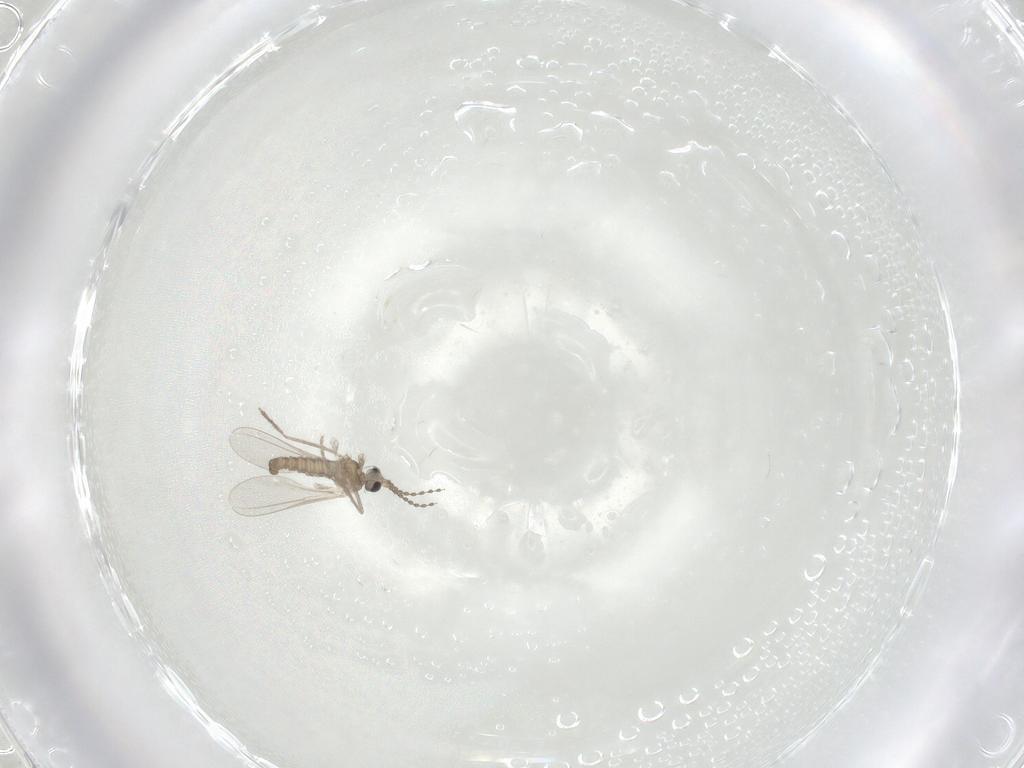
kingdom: Animalia
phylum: Arthropoda
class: Insecta
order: Diptera
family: Cecidomyiidae
